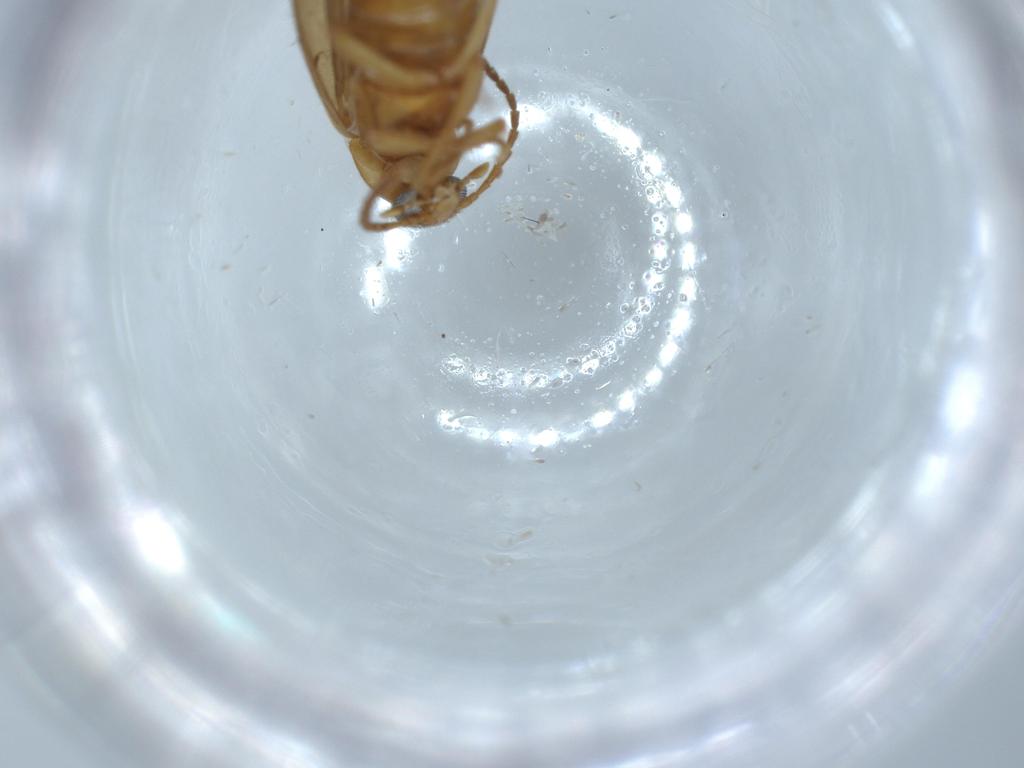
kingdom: Animalia
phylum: Arthropoda
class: Insecta
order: Coleoptera
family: Scraptiidae
